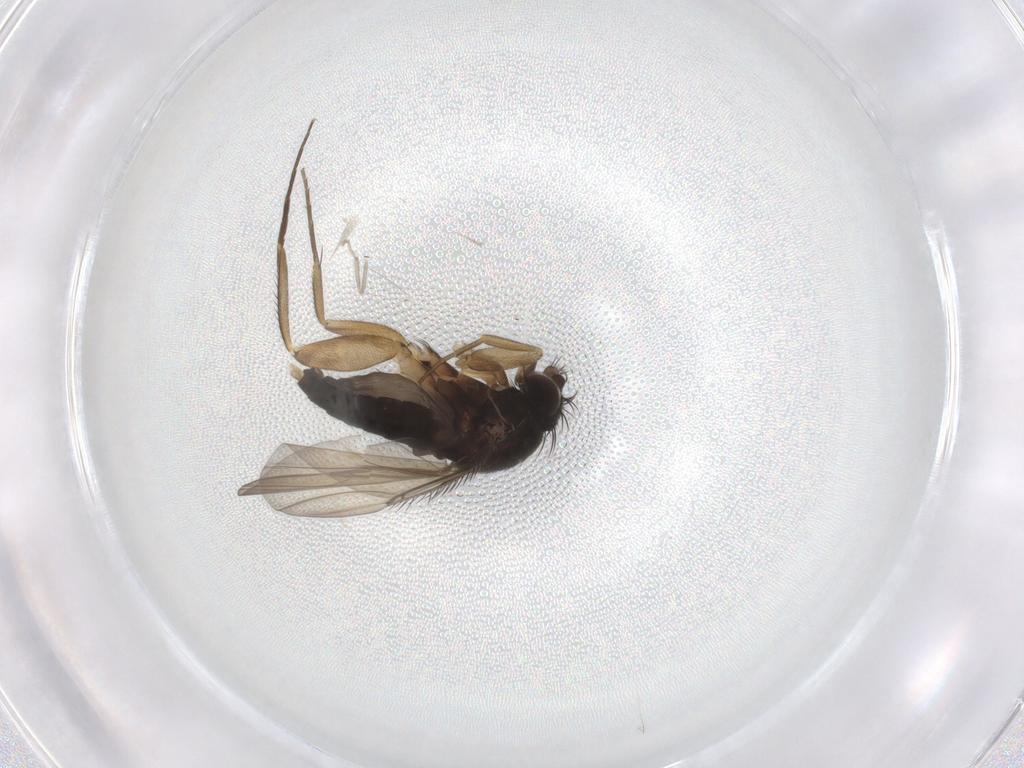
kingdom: Animalia
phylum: Arthropoda
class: Insecta
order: Diptera
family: Phoridae
